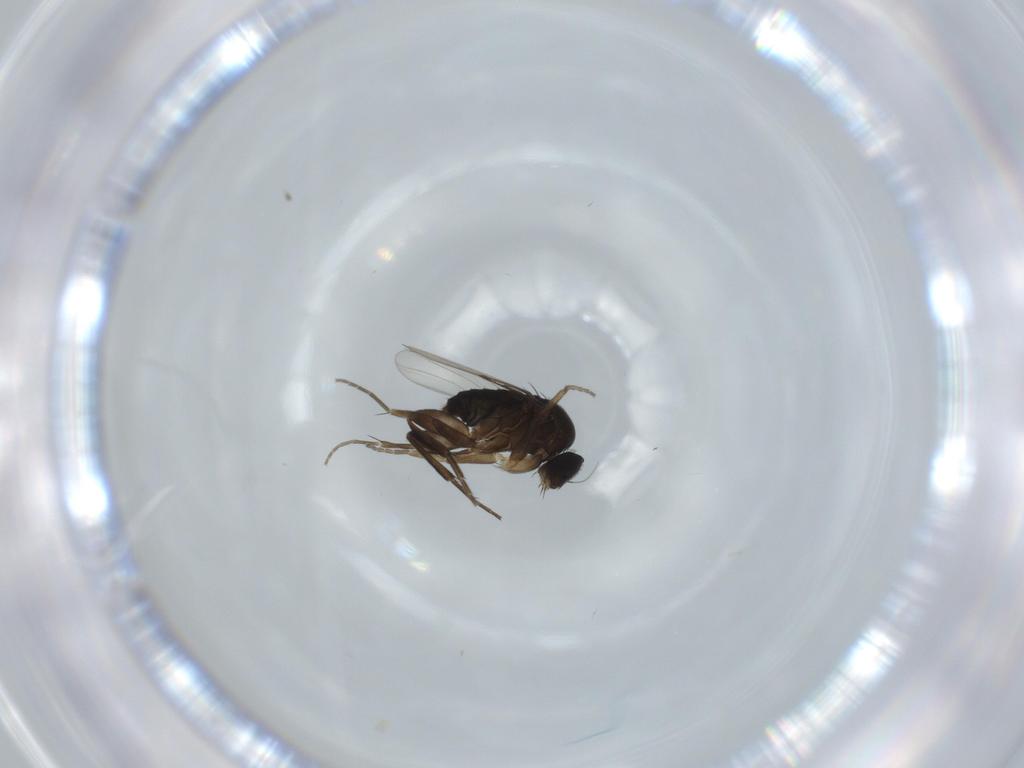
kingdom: Animalia
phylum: Arthropoda
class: Insecta
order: Diptera
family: Phoridae
